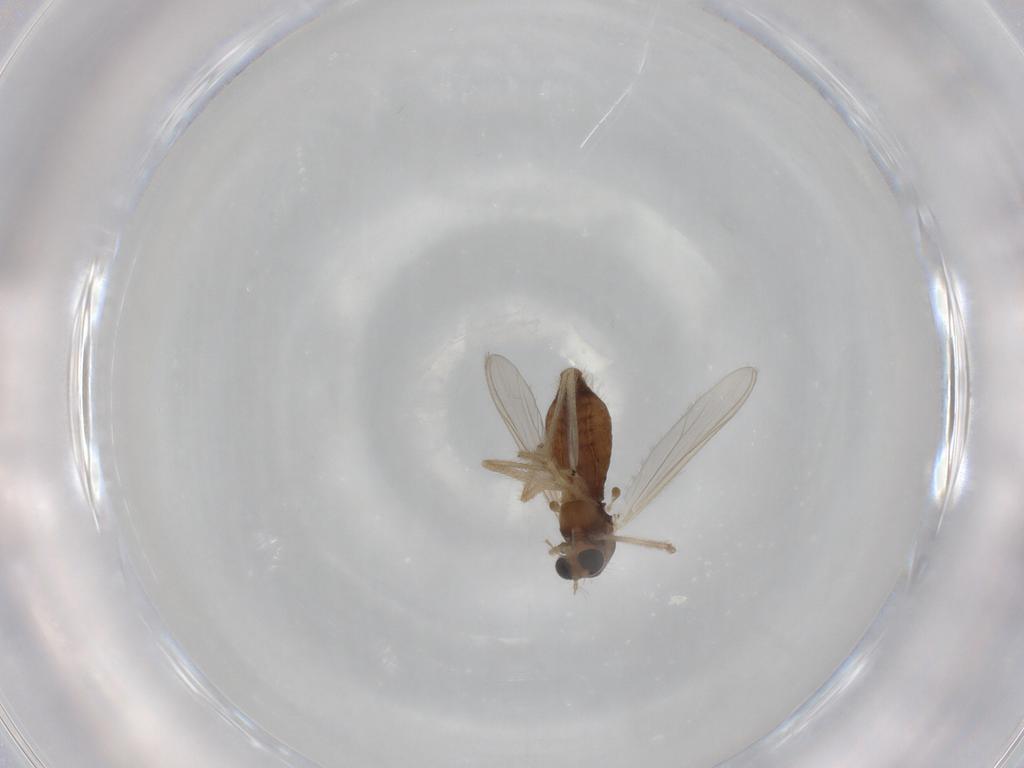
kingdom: Animalia
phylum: Arthropoda
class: Insecta
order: Diptera
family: Chironomidae
